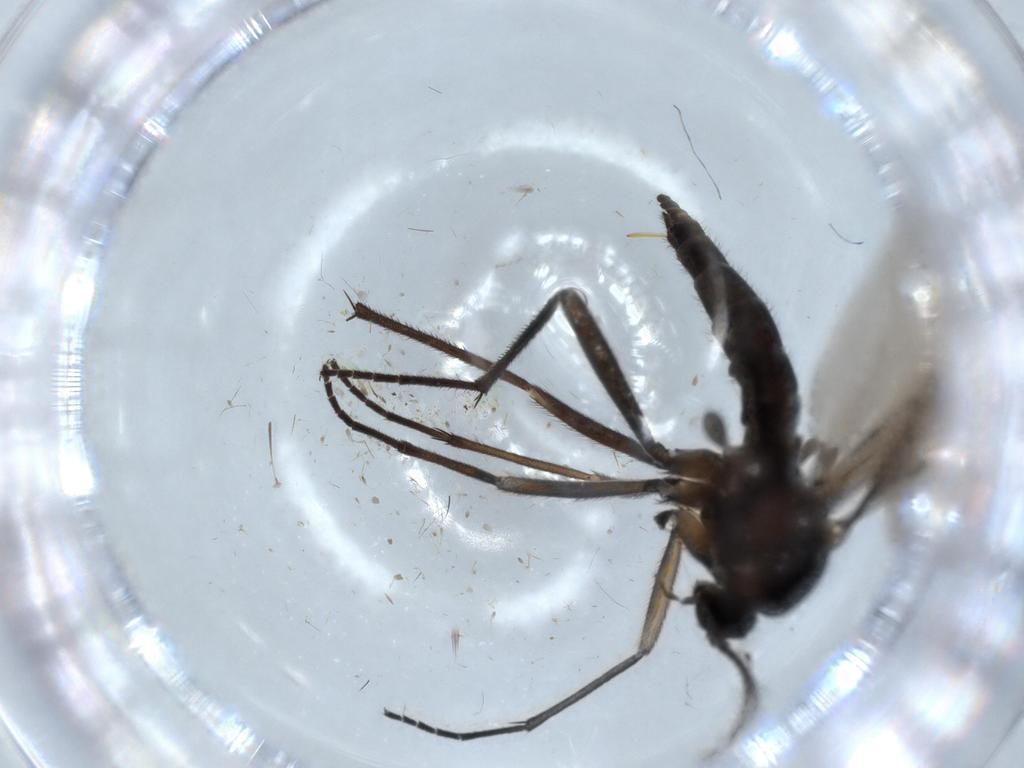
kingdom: Animalia
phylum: Arthropoda
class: Insecta
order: Diptera
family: Sciaridae
